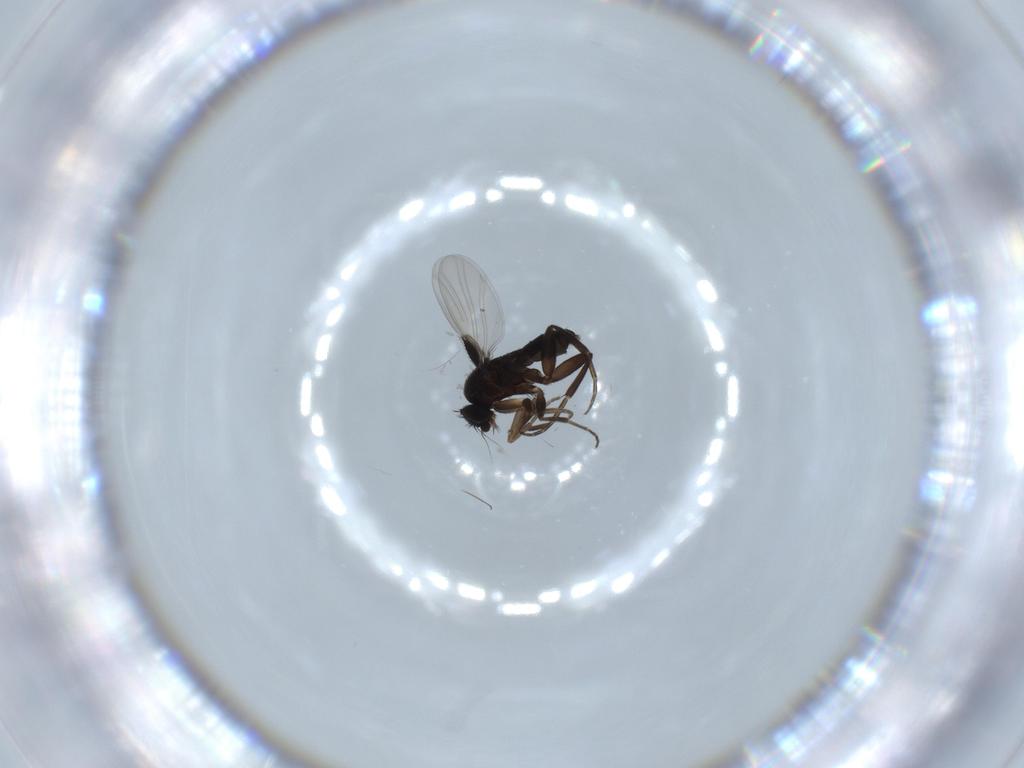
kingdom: Animalia
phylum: Arthropoda
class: Insecta
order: Diptera
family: Phoridae
